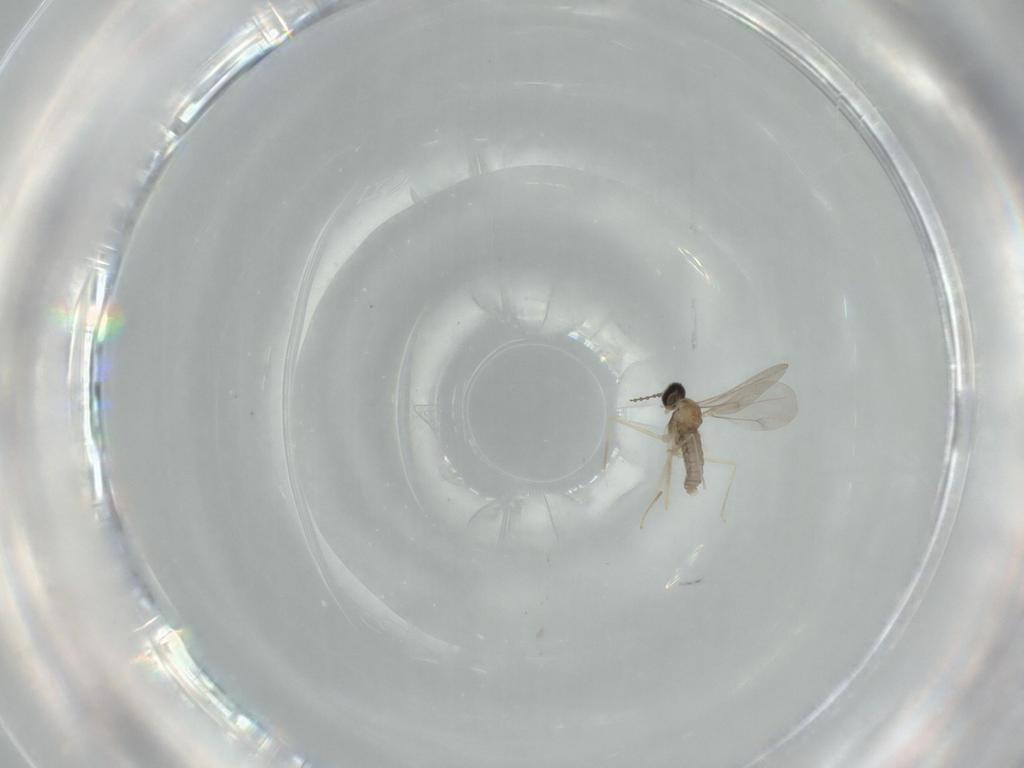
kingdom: Animalia
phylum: Arthropoda
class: Insecta
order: Diptera
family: Cecidomyiidae
